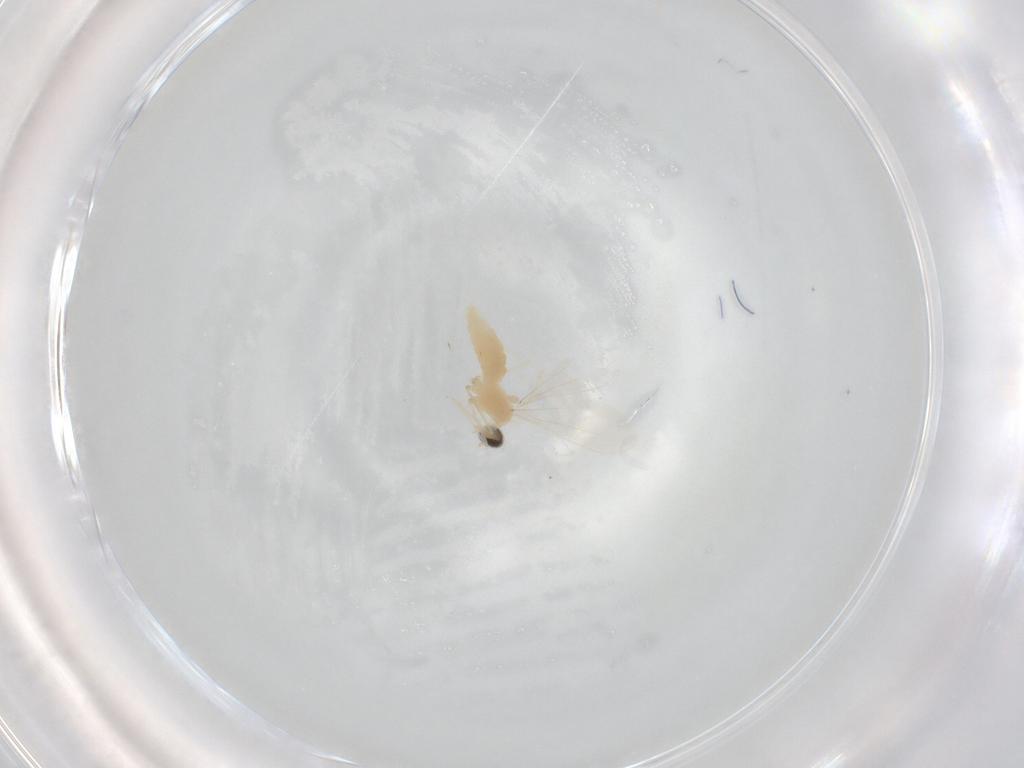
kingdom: Animalia
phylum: Arthropoda
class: Insecta
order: Diptera
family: Cecidomyiidae
